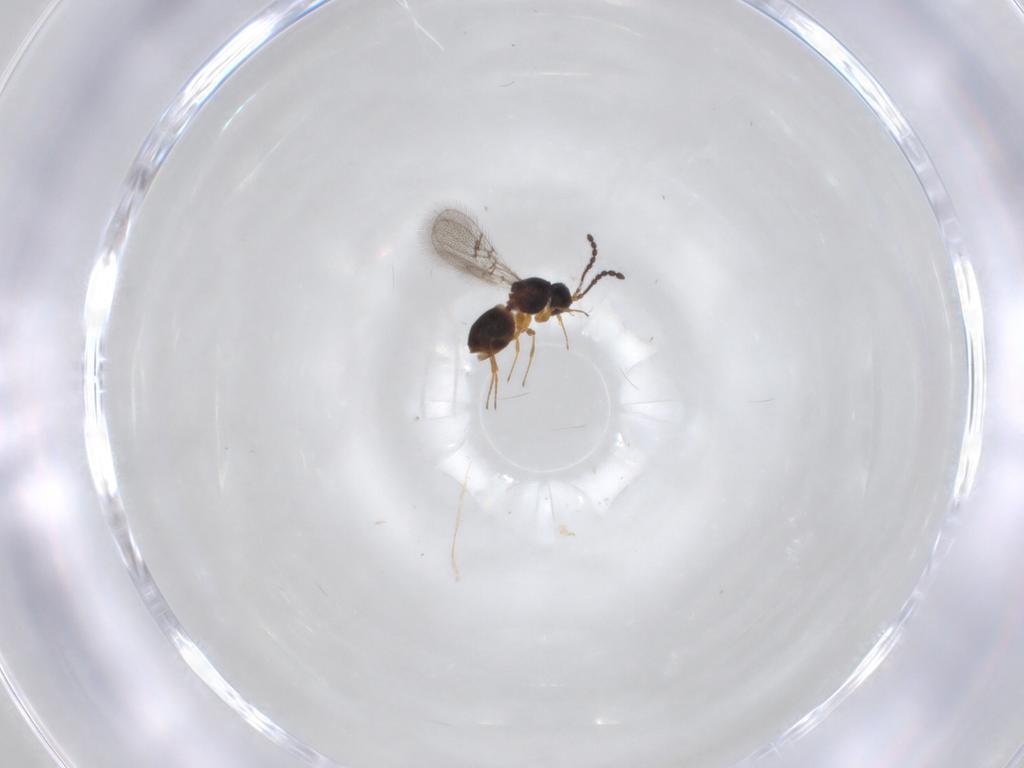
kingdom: Animalia
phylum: Arthropoda
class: Insecta
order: Hymenoptera
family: Figitidae
